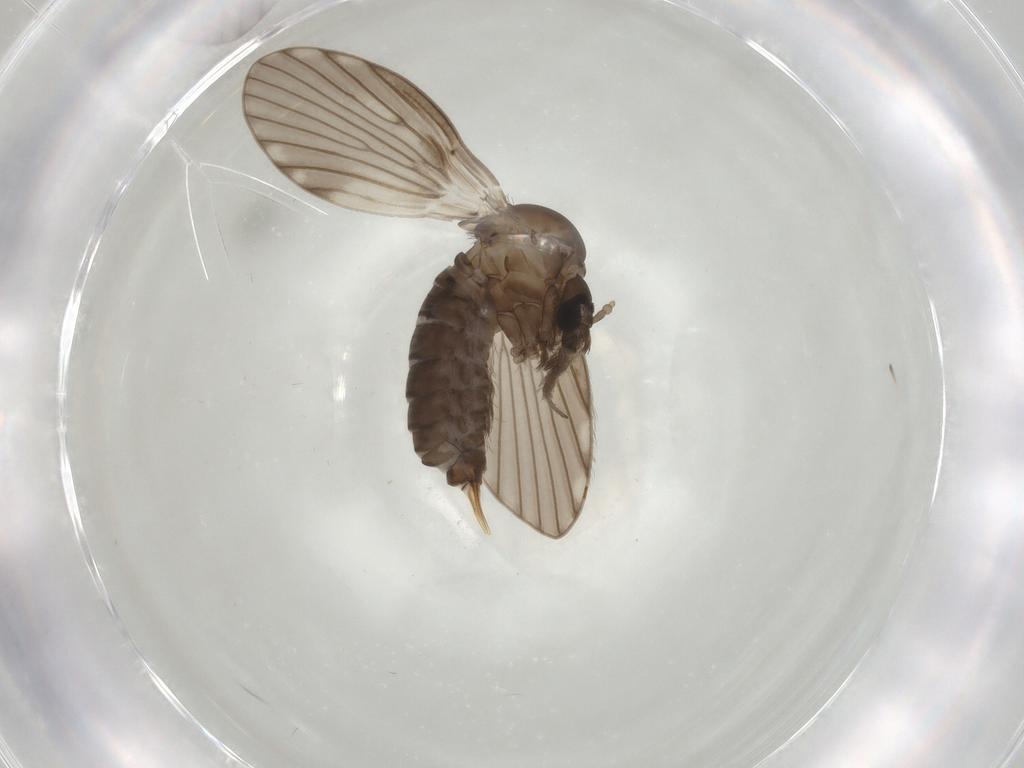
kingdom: Animalia
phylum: Arthropoda
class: Insecta
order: Diptera
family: Psychodidae
